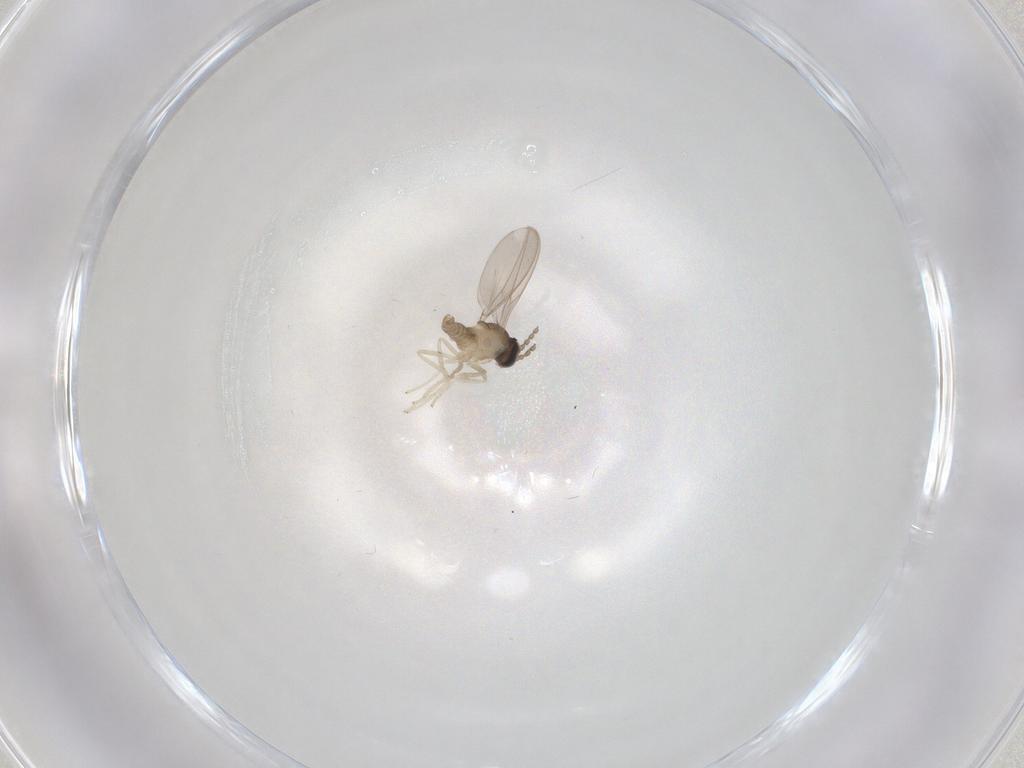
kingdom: Animalia
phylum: Arthropoda
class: Insecta
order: Diptera
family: Cecidomyiidae
